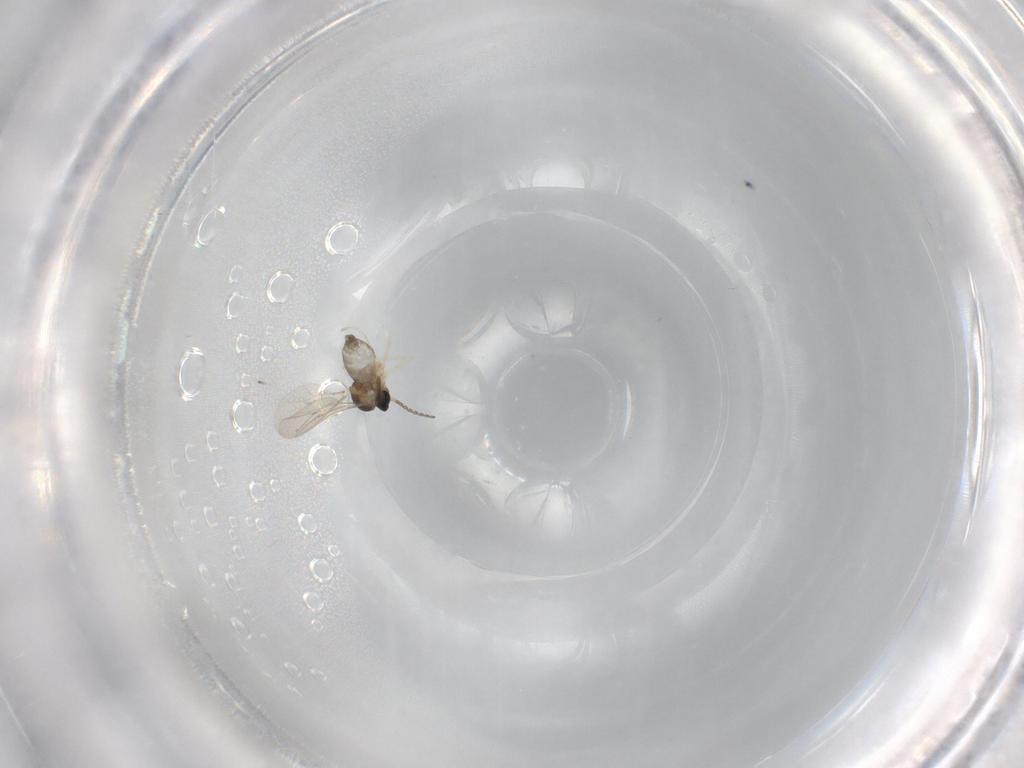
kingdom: Animalia
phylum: Arthropoda
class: Insecta
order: Diptera
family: Cecidomyiidae
